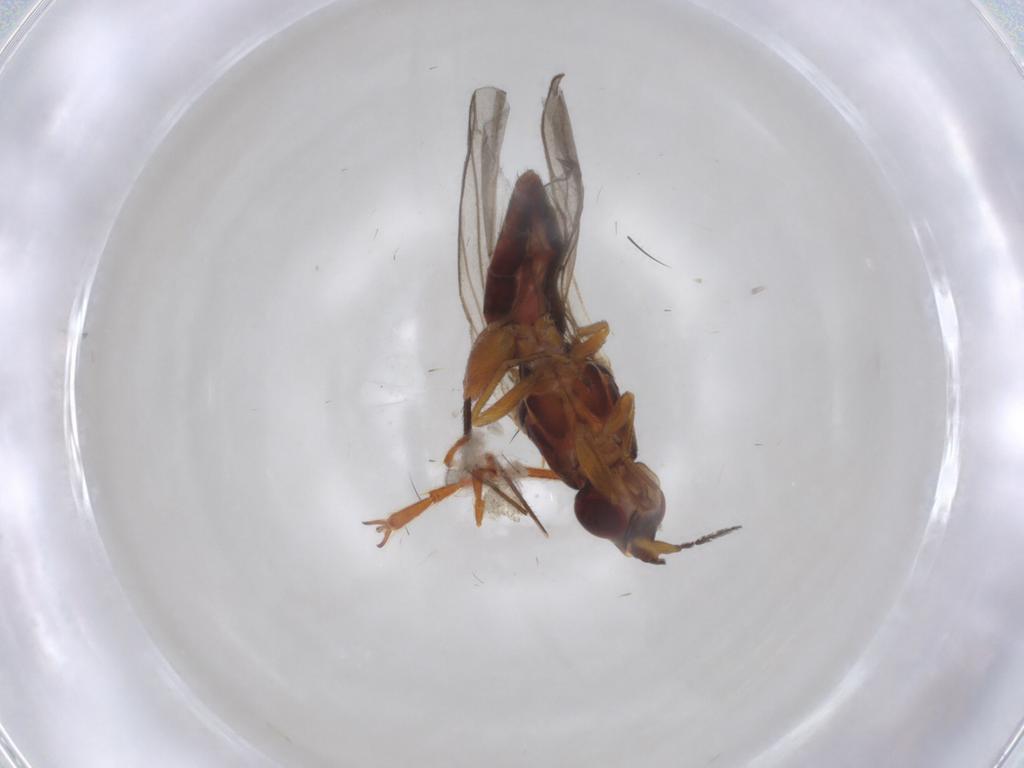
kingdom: Animalia
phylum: Arthropoda
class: Insecta
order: Diptera
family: Chloropidae
